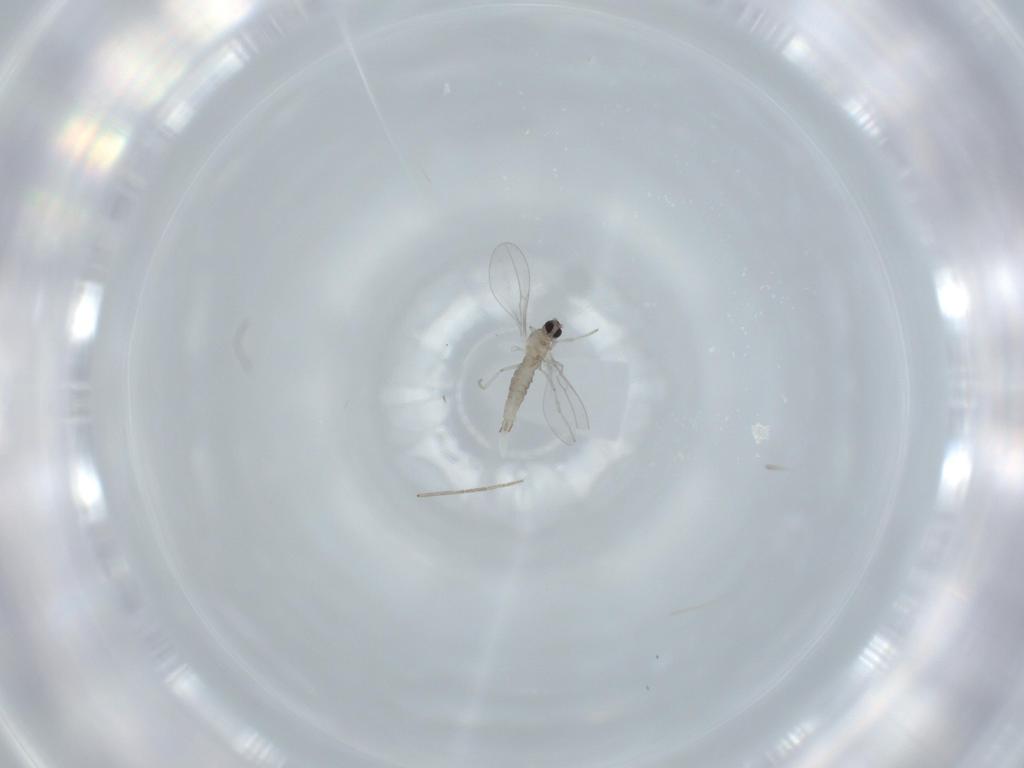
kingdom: Animalia
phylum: Arthropoda
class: Insecta
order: Diptera
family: Cecidomyiidae
